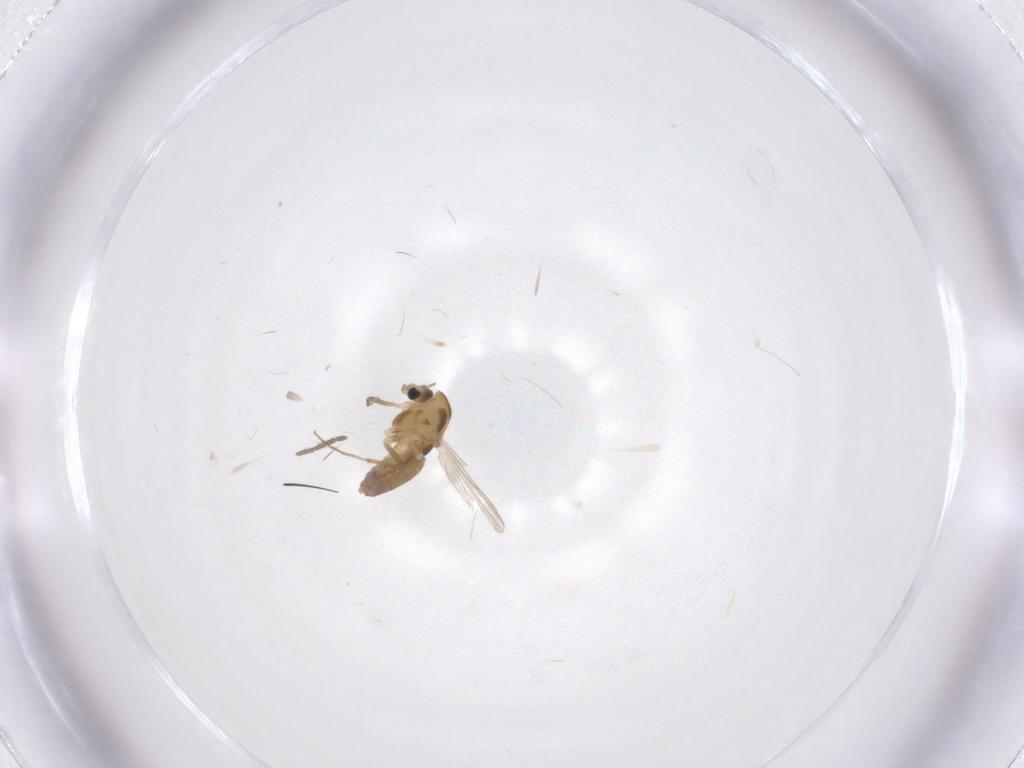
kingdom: Animalia
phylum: Arthropoda
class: Insecta
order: Diptera
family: Chironomidae
